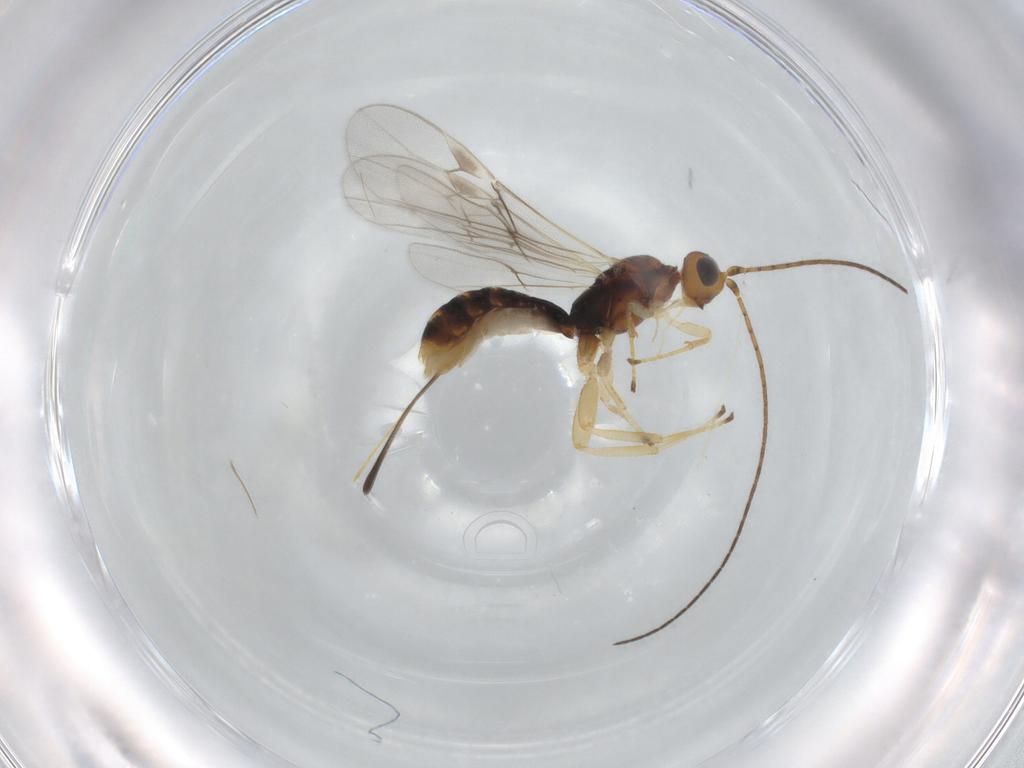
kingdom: Animalia
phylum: Arthropoda
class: Insecta
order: Hymenoptera
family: Braconidae
